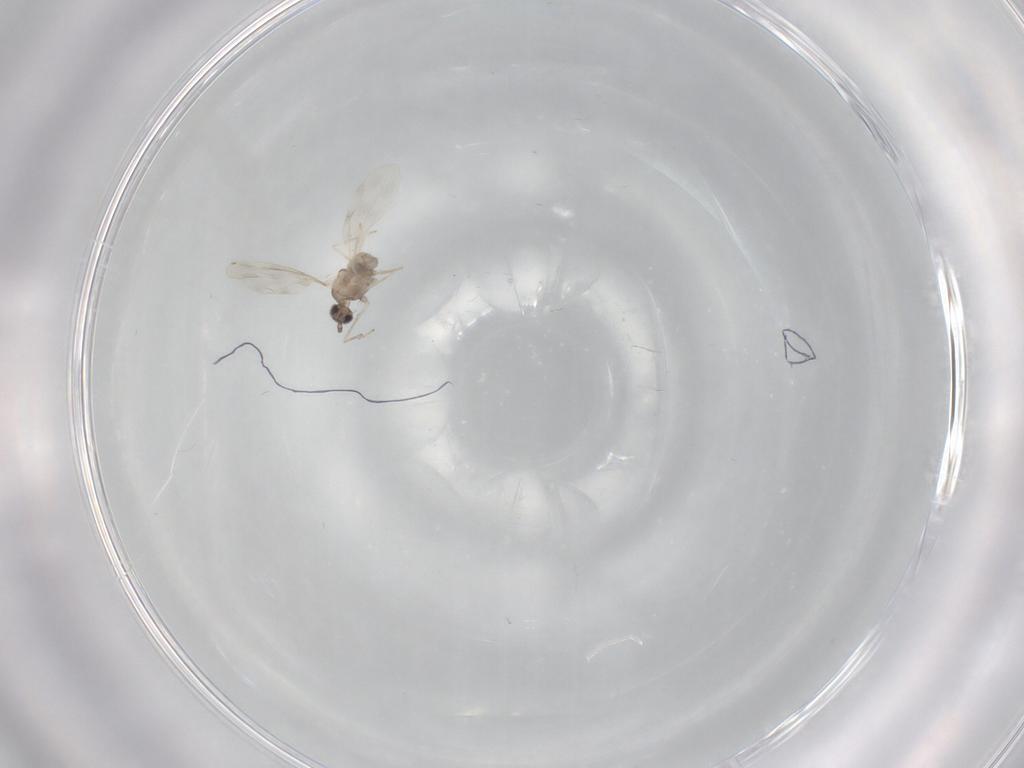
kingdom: Animalia
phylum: Arthropoda
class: Insecta
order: Diptera
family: Cecidomyiidae
